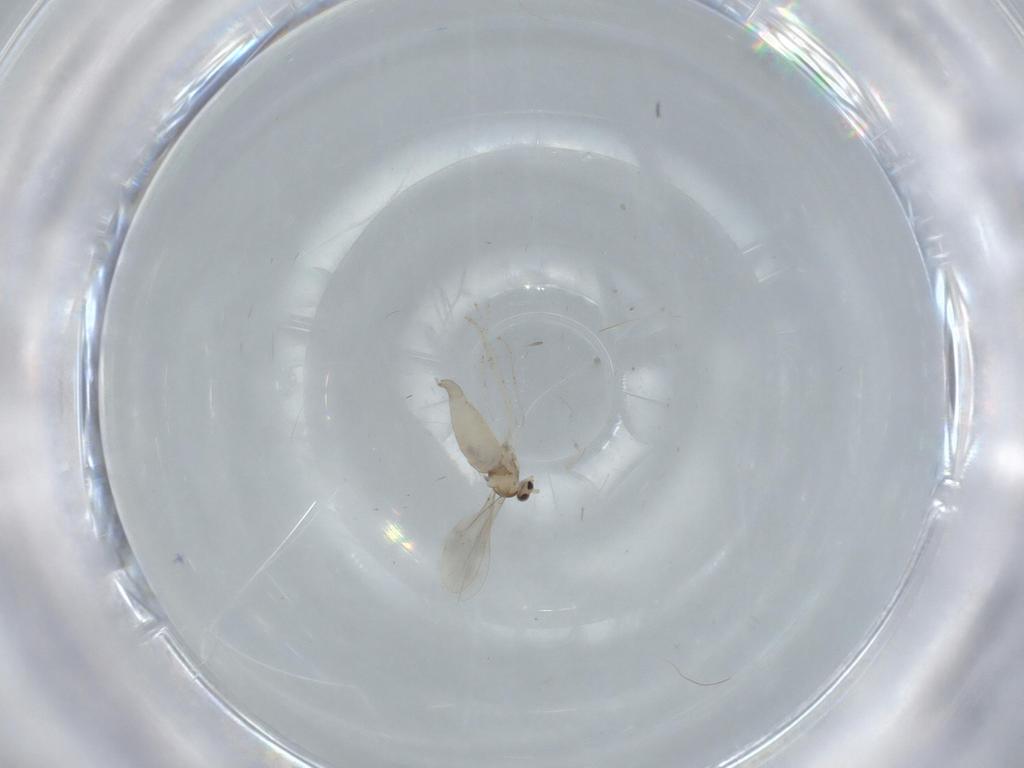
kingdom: Animalia
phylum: Arthropoda
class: Insecta
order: Diptera
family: Cecidomyiidae
